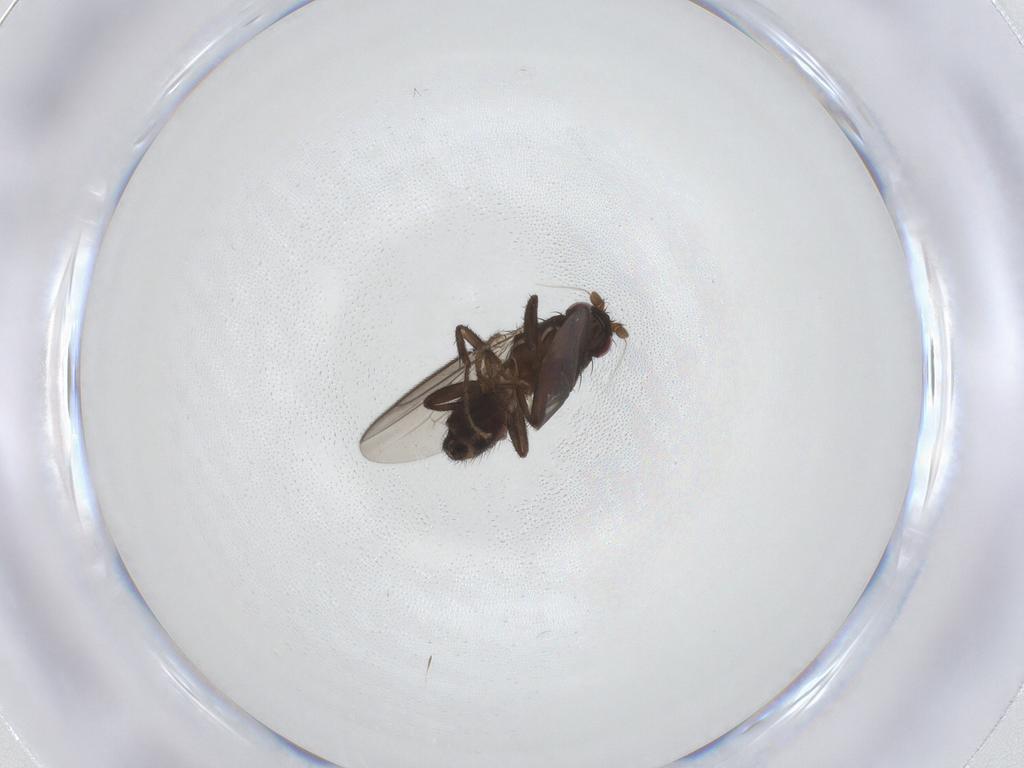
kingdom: Animalia
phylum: Arthropoda
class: Insecta
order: Diptera
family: Sphaeroceridae
